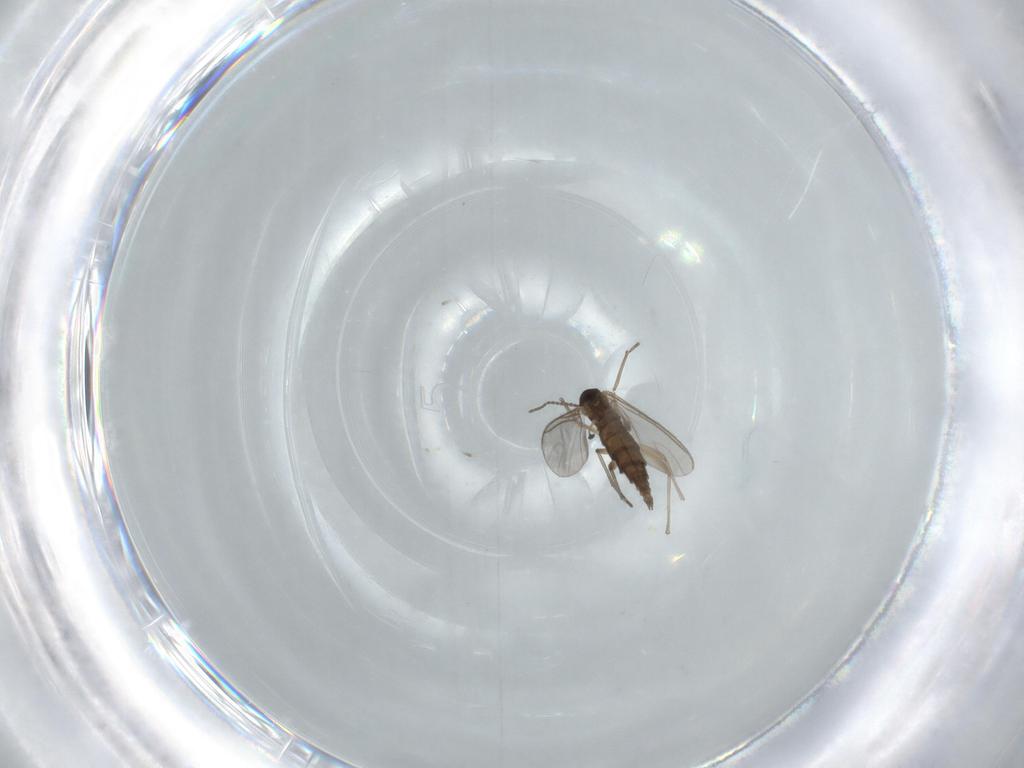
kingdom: Animalia
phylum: Arthropoda
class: Insecta
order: Diptera
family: Mycetophilidae
